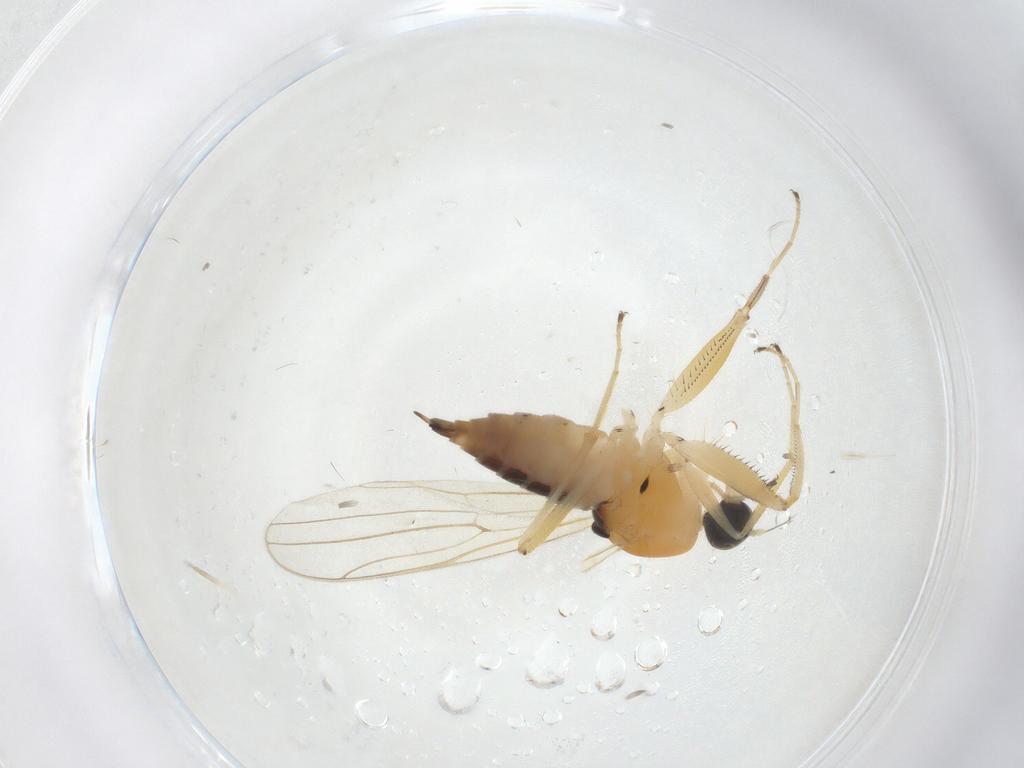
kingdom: Animalia
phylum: Arthropoda
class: Insecta
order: Diptera
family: Hybotidae
